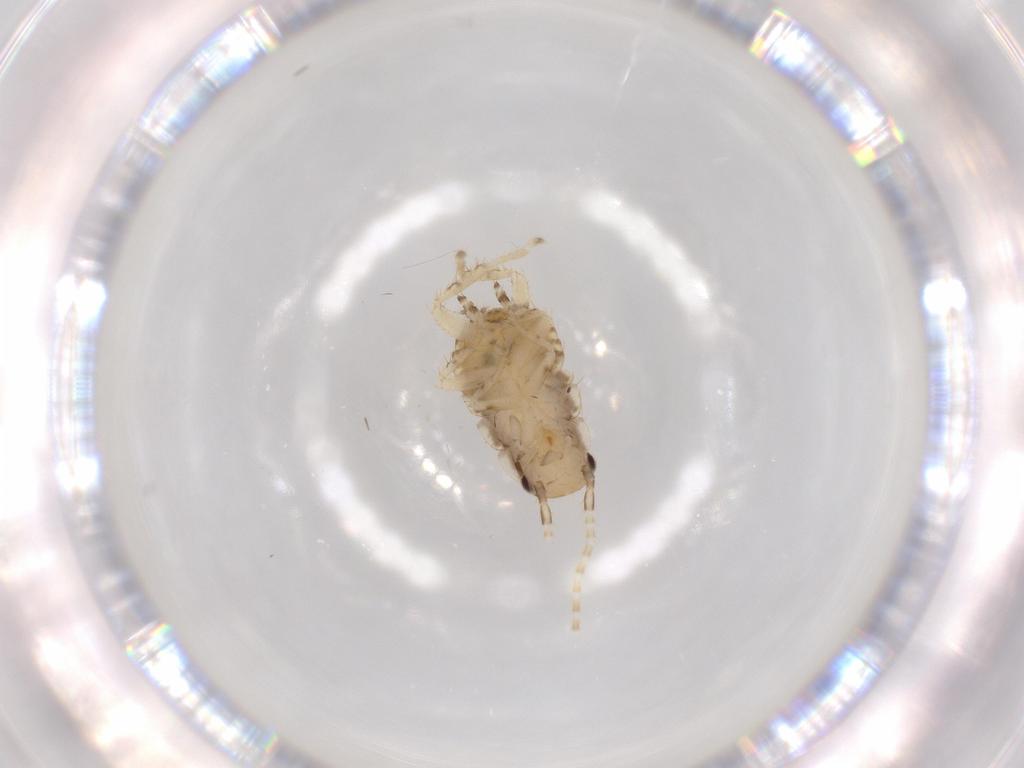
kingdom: Animalia
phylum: Arthropoda
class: Insecta
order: Blattodea
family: Ectobiidae
